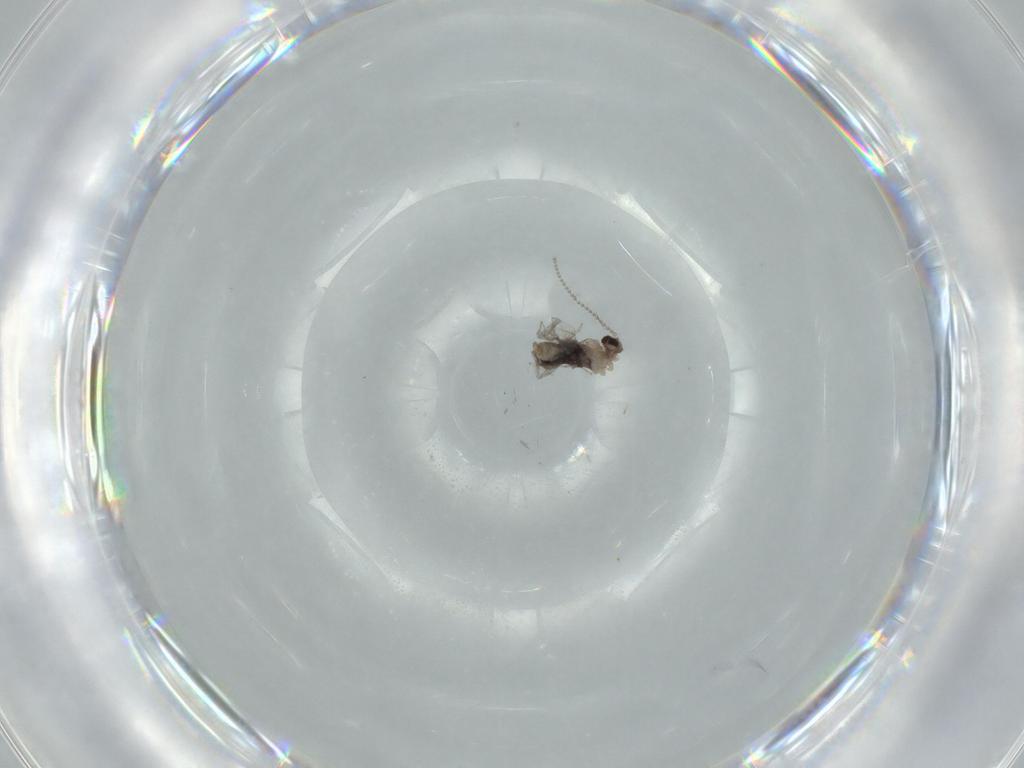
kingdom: Animalia
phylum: Arthropoda
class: Insecta
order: Diptera
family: Cecidomyiidae
